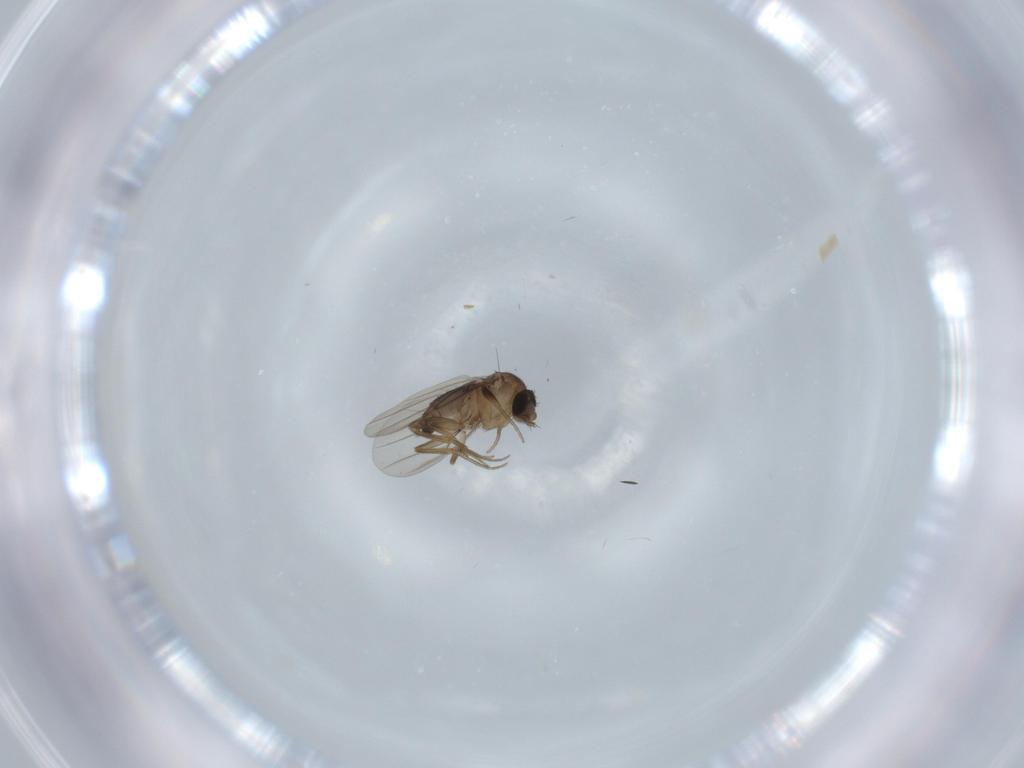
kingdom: Animalia
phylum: Arthropoda
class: Insecta
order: Diptera
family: Phoridae
